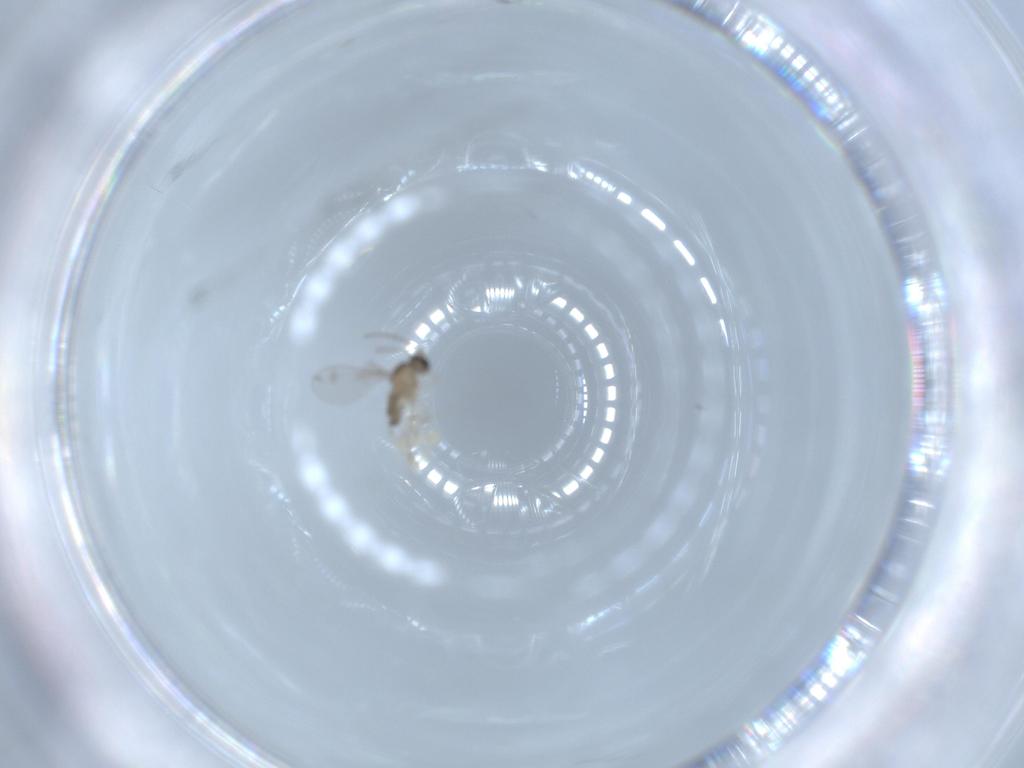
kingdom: Animalia
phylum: Arthropoda
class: Insecta
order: Diptera
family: Cecidomyiidae
